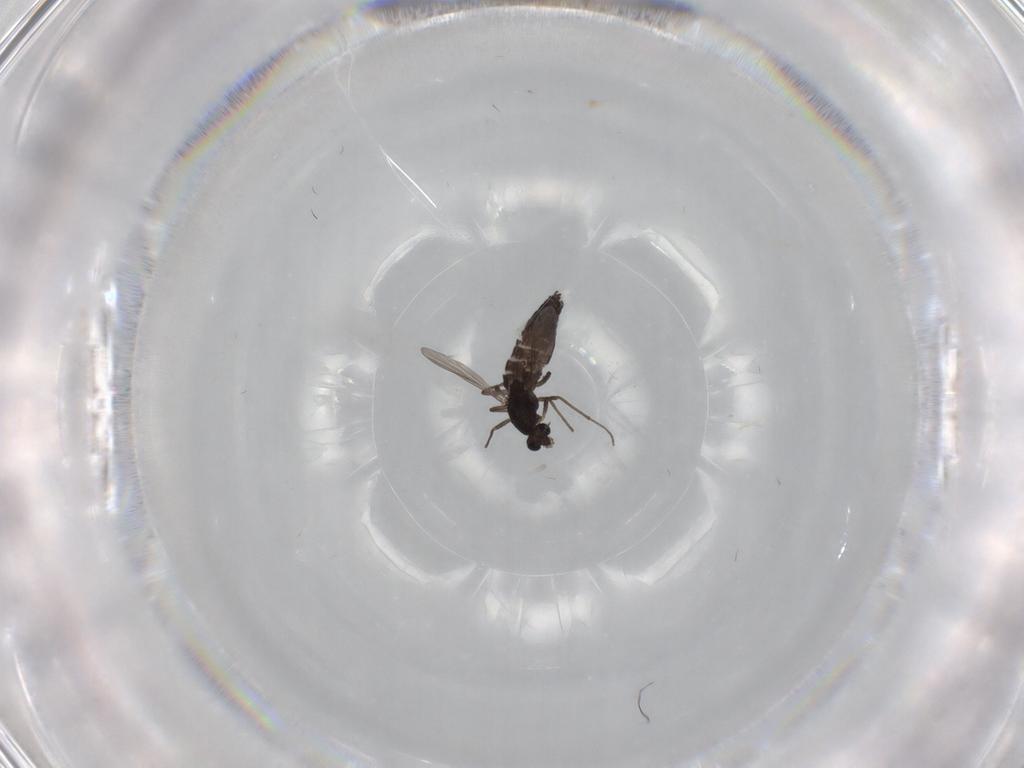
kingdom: Animalia
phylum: Arthropoda
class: Insecta
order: Diptera
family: Chironomidae
